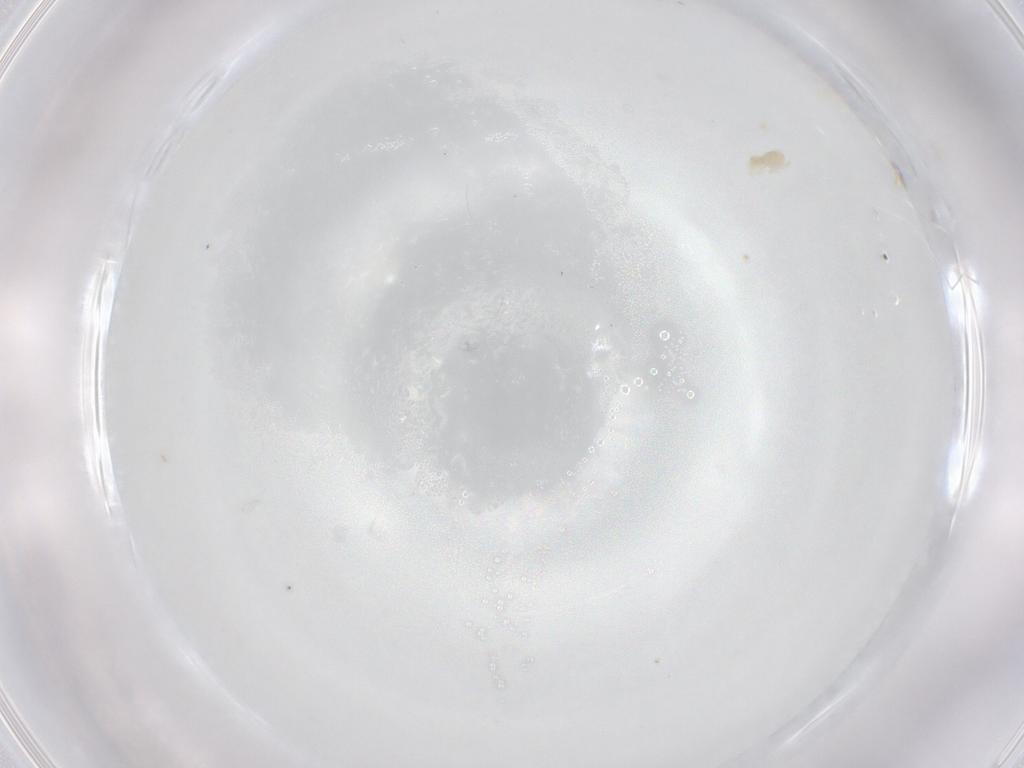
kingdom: Animalia
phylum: Arthropoda
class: Arachnida
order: Trombidiformes
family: Eupodidae
